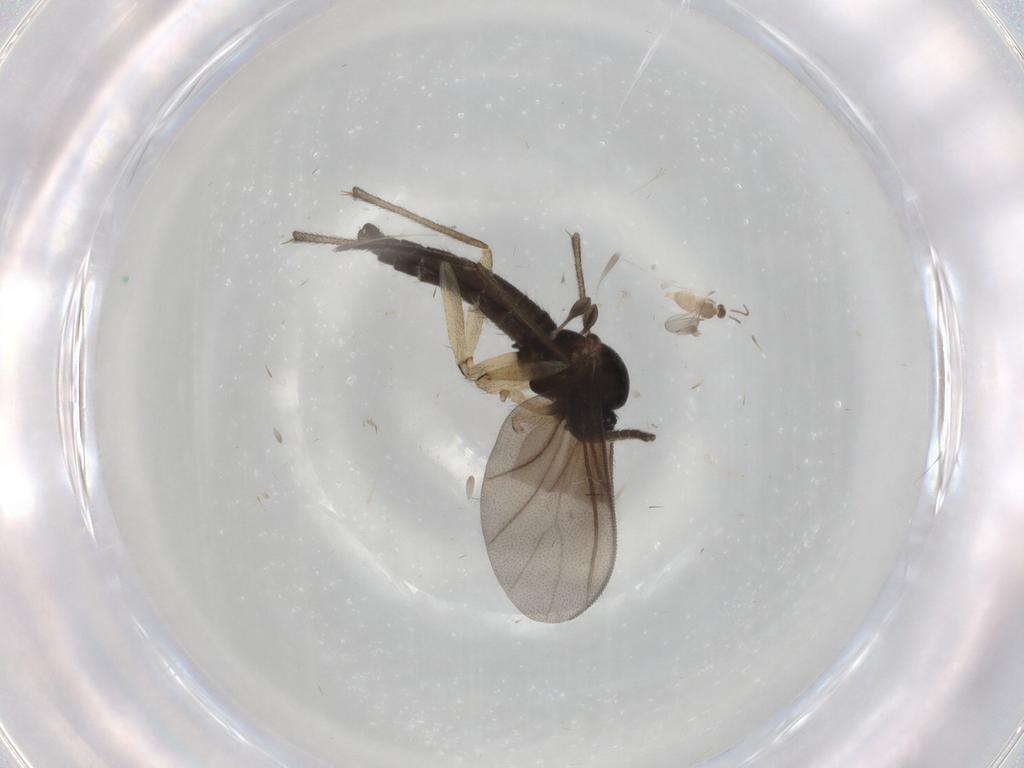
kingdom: Animalia
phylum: Arthropoda
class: Insecta
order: Diptera
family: Sciaridae
